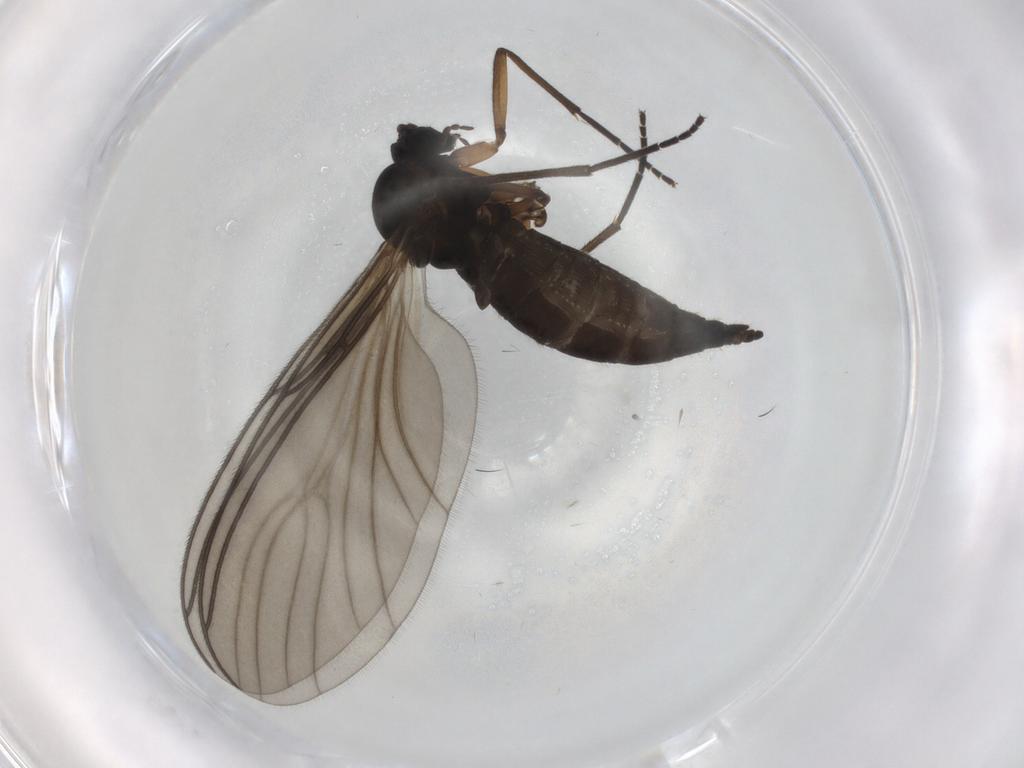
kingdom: Animalia
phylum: Arthropoda
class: Insecta
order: Diptera
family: Sciaridae
